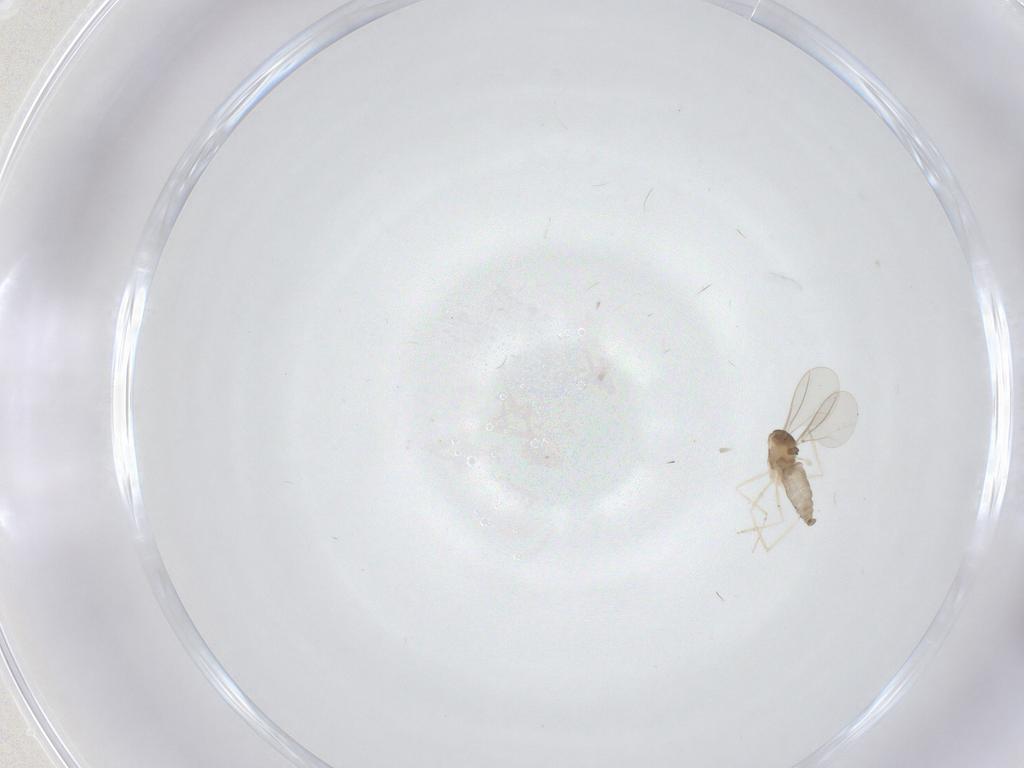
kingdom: Animalia
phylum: Arthropoda
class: Insecta
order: Diptera
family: Cecidomyiidae
